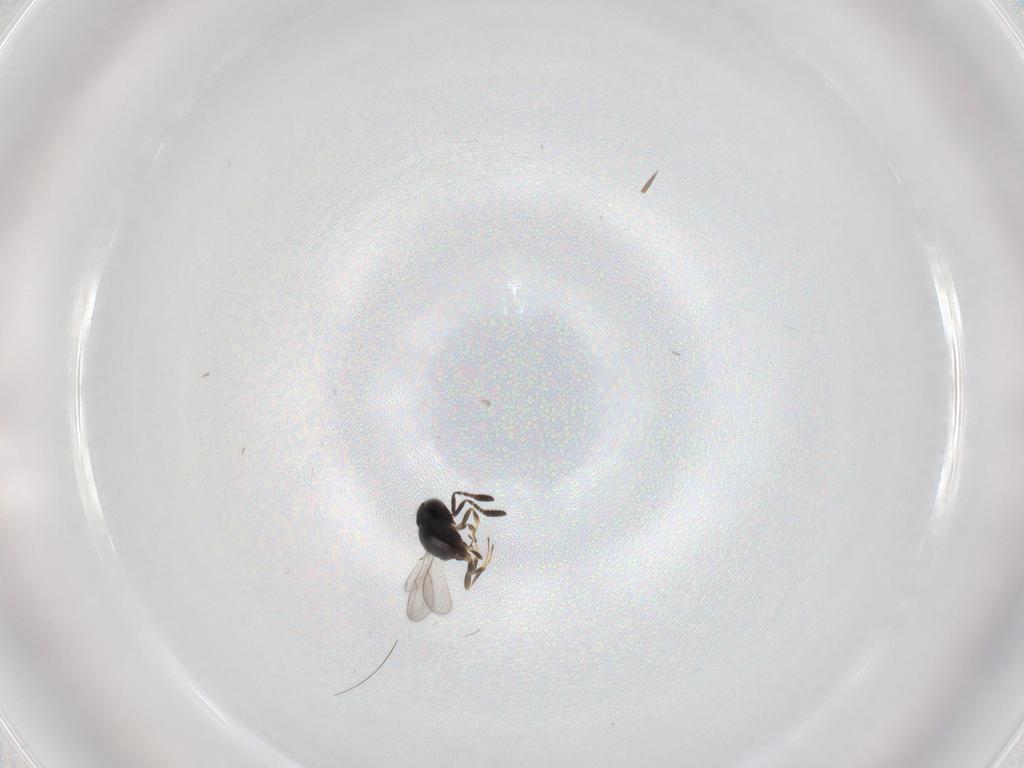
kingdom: Animalia
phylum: Arthropoda
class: Insecta
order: Hymenoptera
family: Scelionidae
